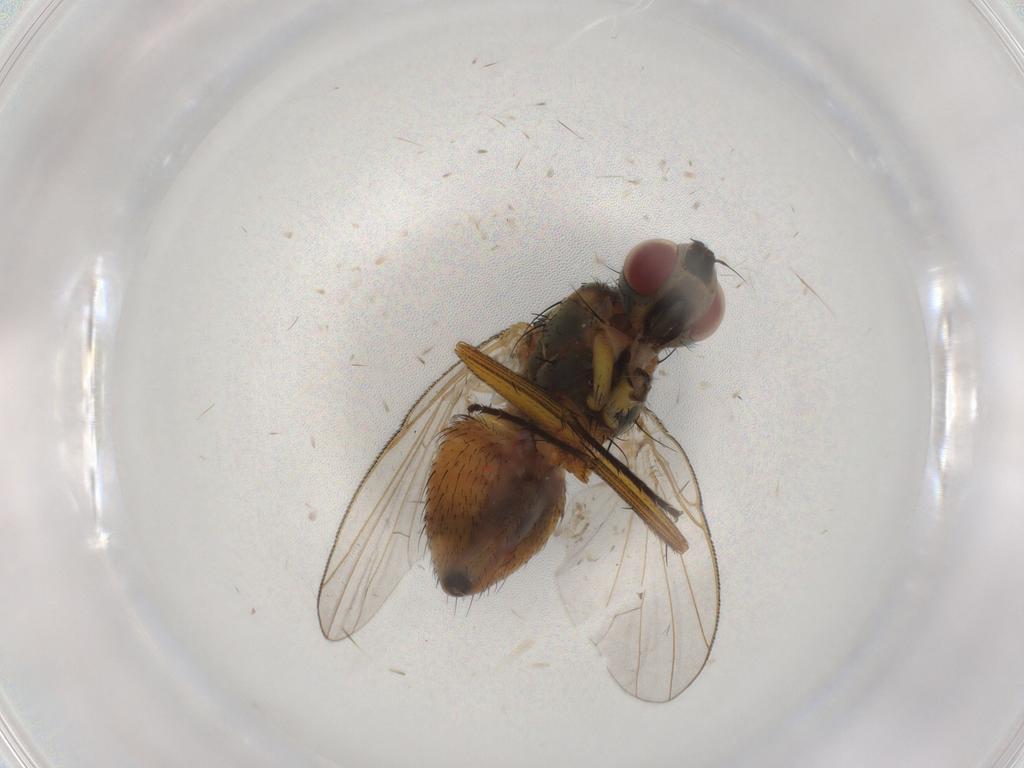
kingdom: Animalia
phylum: Arthropoda
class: Insecta
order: Diptera
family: Muscidae
